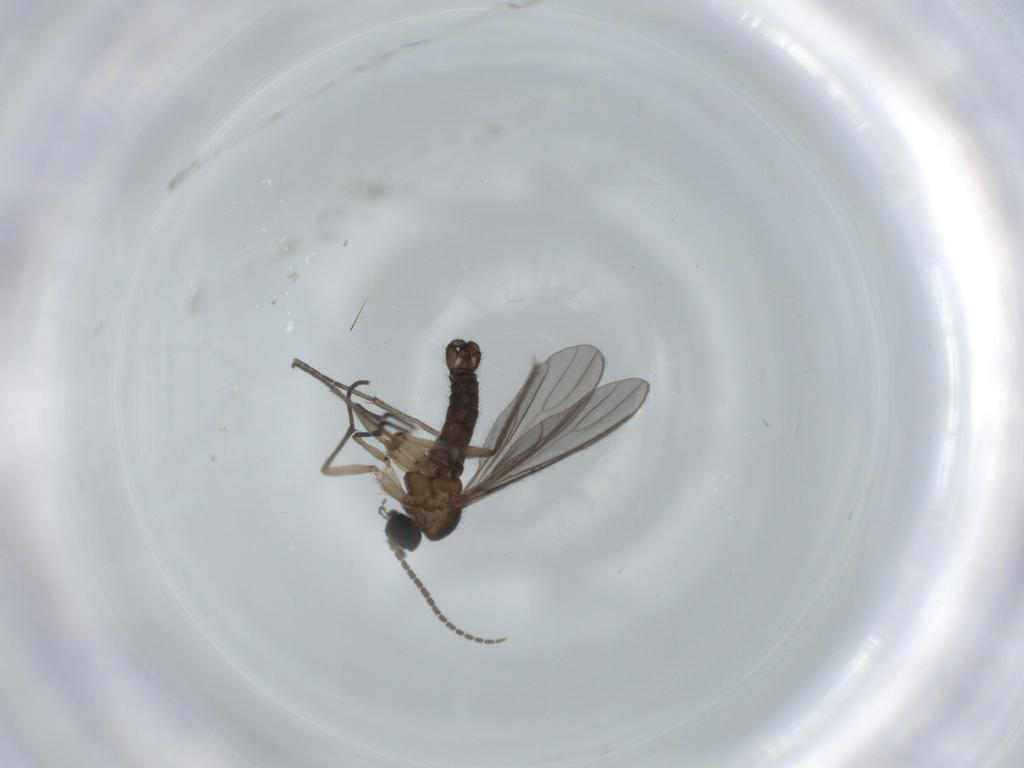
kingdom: Animalia
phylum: Arthropoda
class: Insecta
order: Diptera
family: Sciaridae
